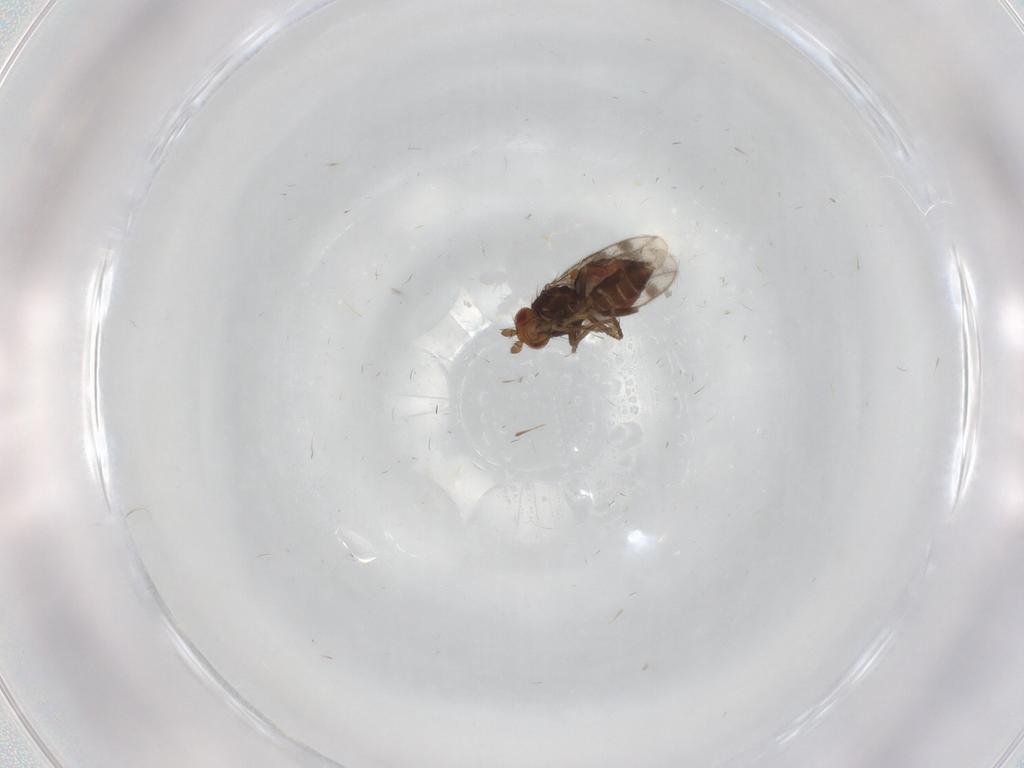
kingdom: Animalia
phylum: Arthropoda
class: Insecta
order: Diptera
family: Sphaeroceridae
